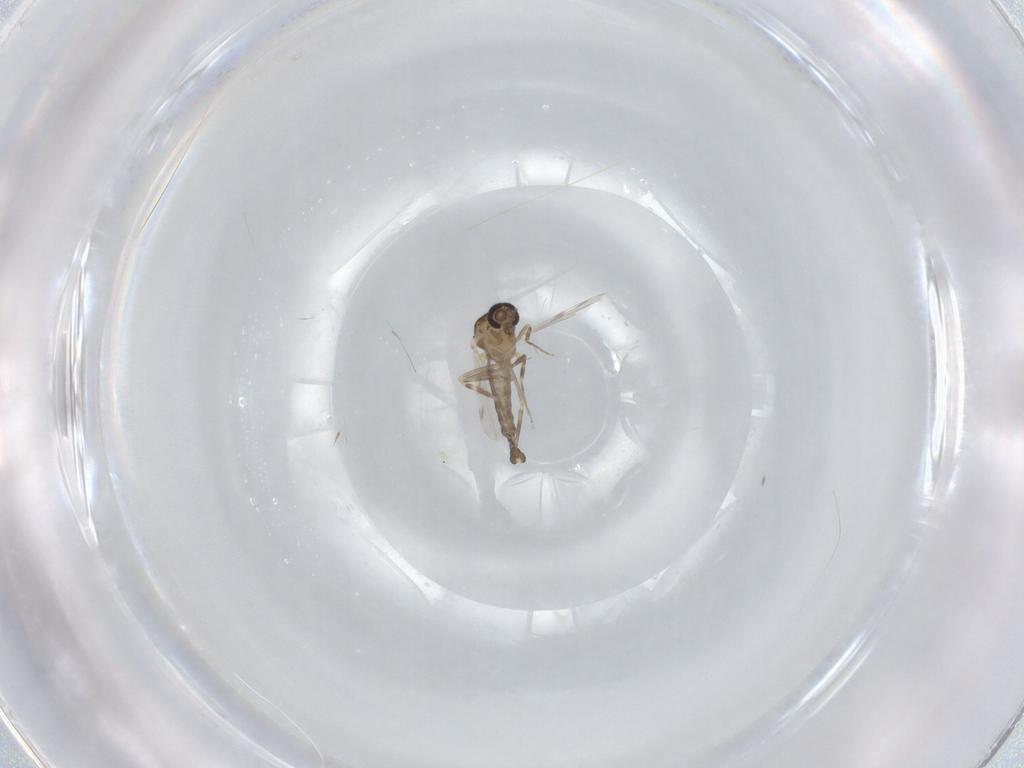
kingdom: Animalia
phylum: Arthropoda
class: Insecta
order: Diptera
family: Ceratopogonidae
